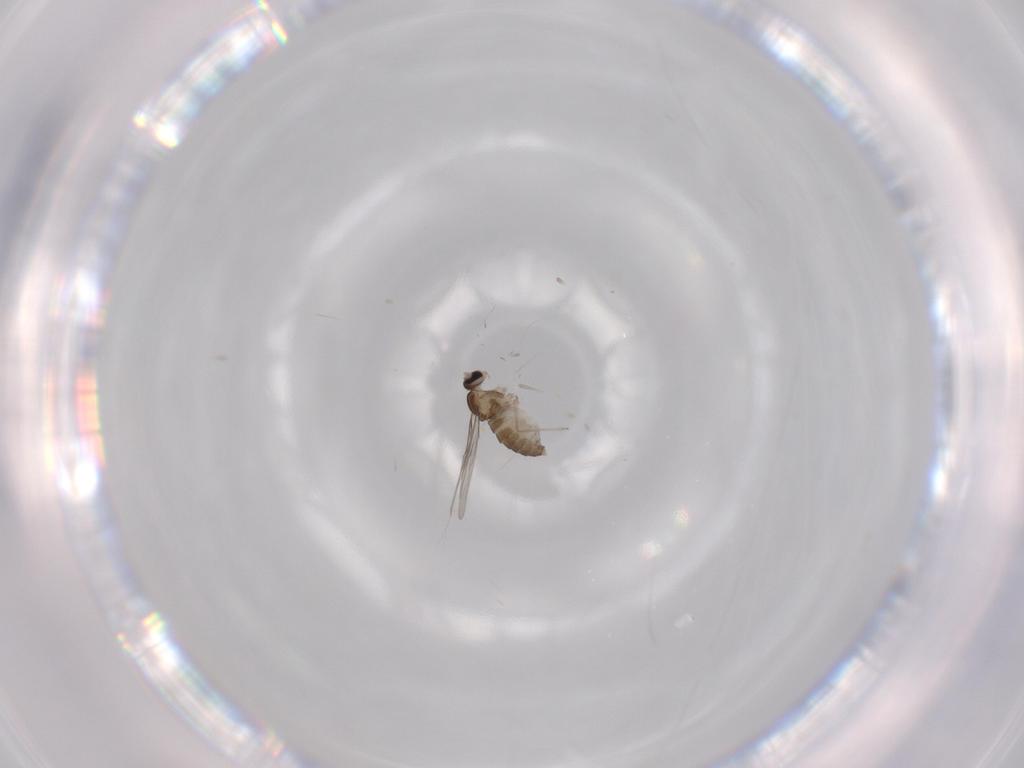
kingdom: Animalia
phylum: Arthropoda
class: Insecta
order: Diptera
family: Cecidomyiidae
